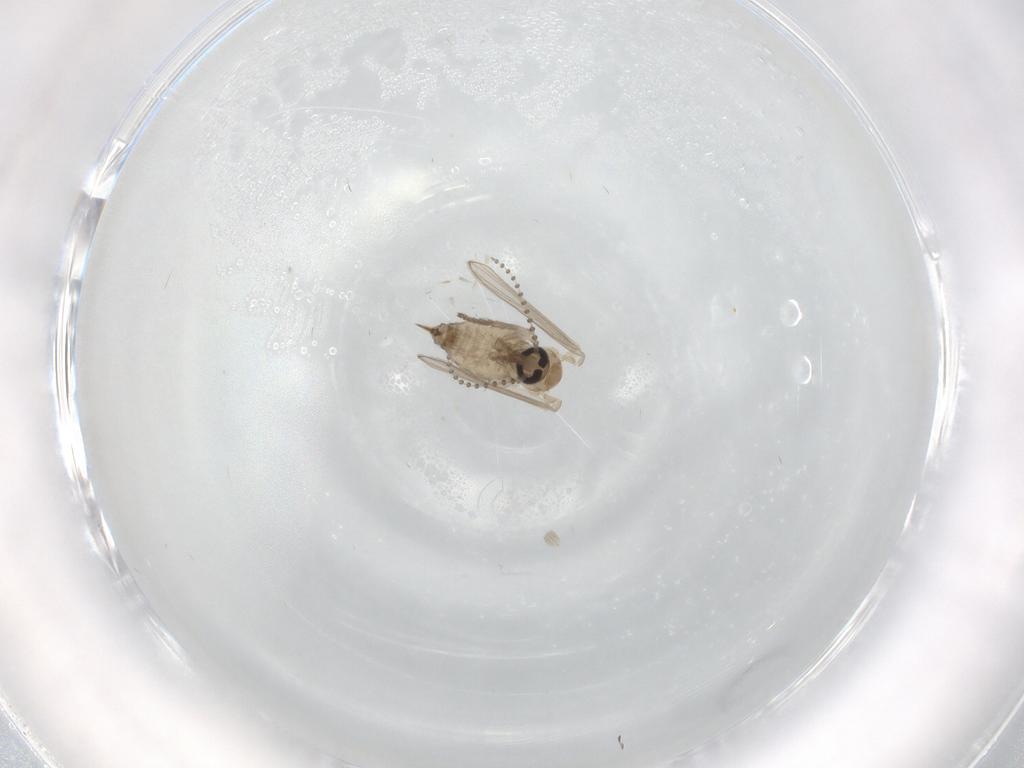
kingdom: Animalia
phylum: Arthropoda
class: Insecta
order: Diptera
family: Psychodidae
